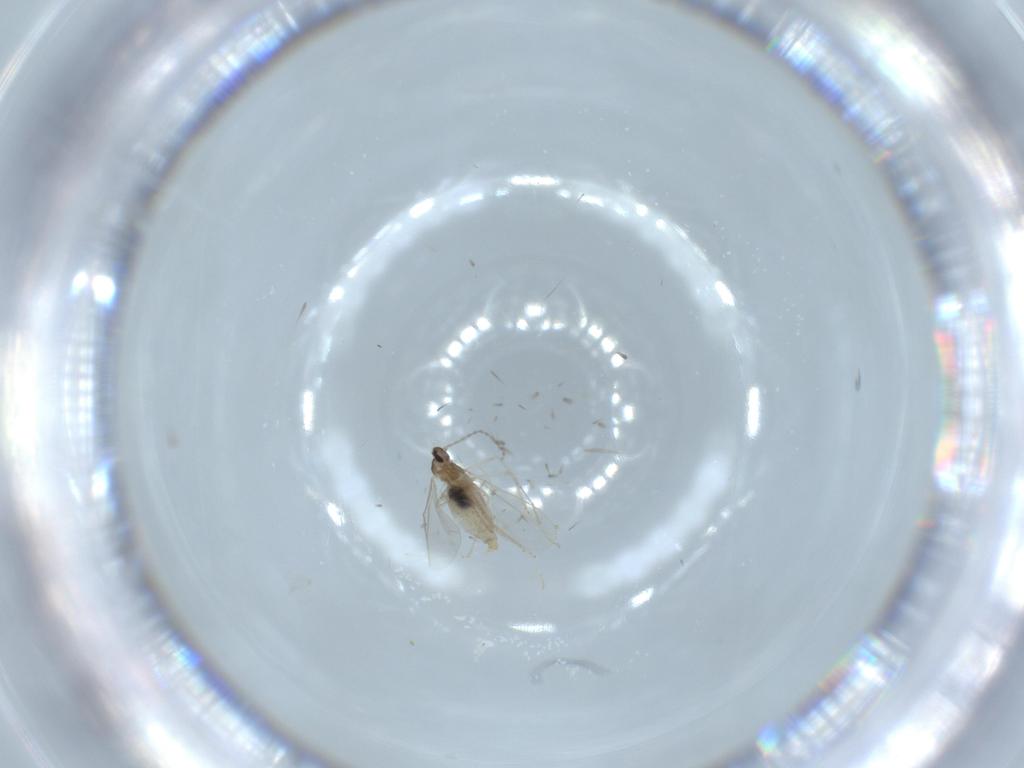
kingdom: Animalia
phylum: Arthropoda
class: Insecta
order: Diptera
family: Cecidomyiidae
